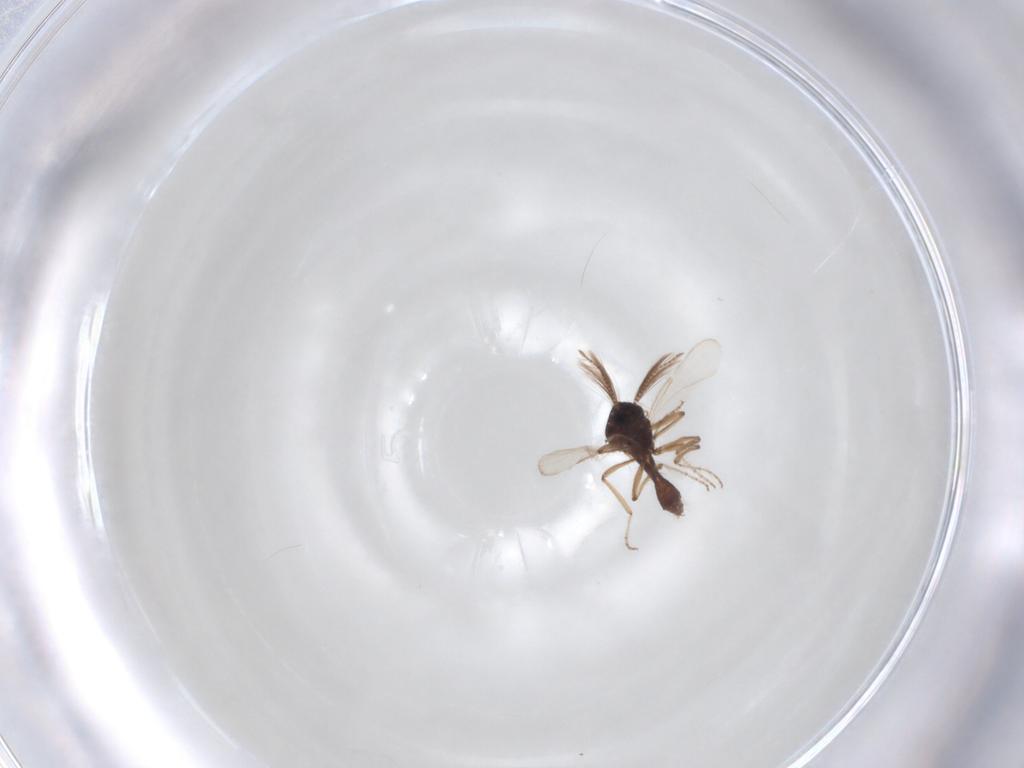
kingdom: Animalia
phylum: Arthropoda
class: Insecta
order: Diptera
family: Ceratopogonidae
